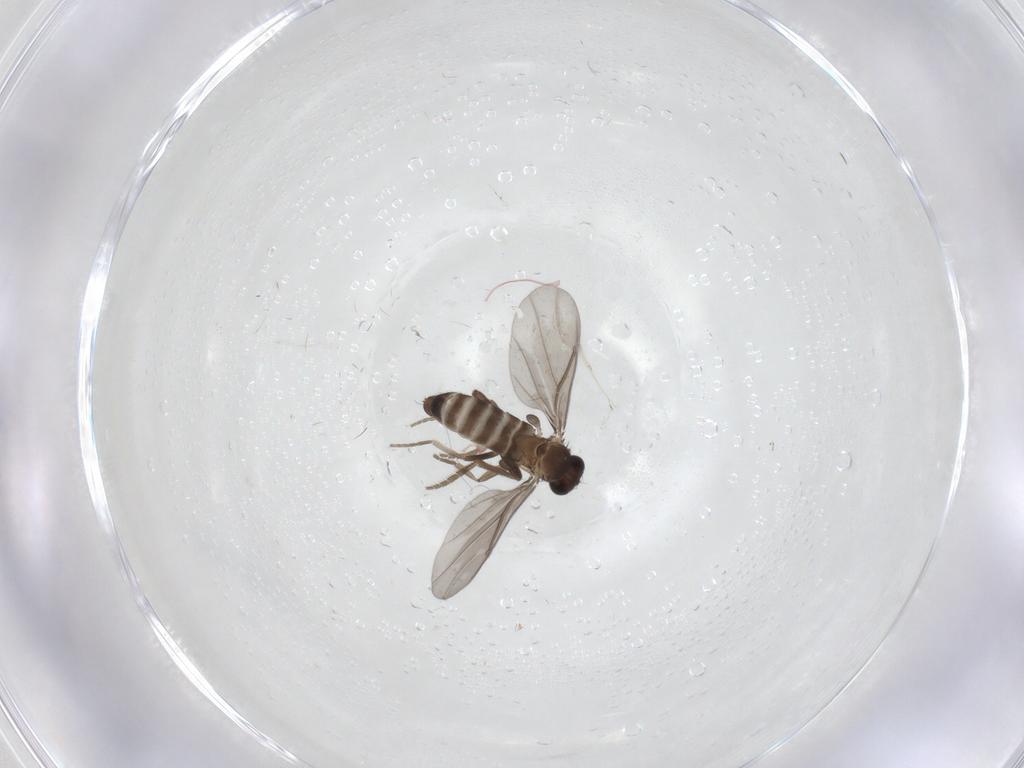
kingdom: Animalia
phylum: Arthropoda
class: Insecta
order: Diptera
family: Phoridae
